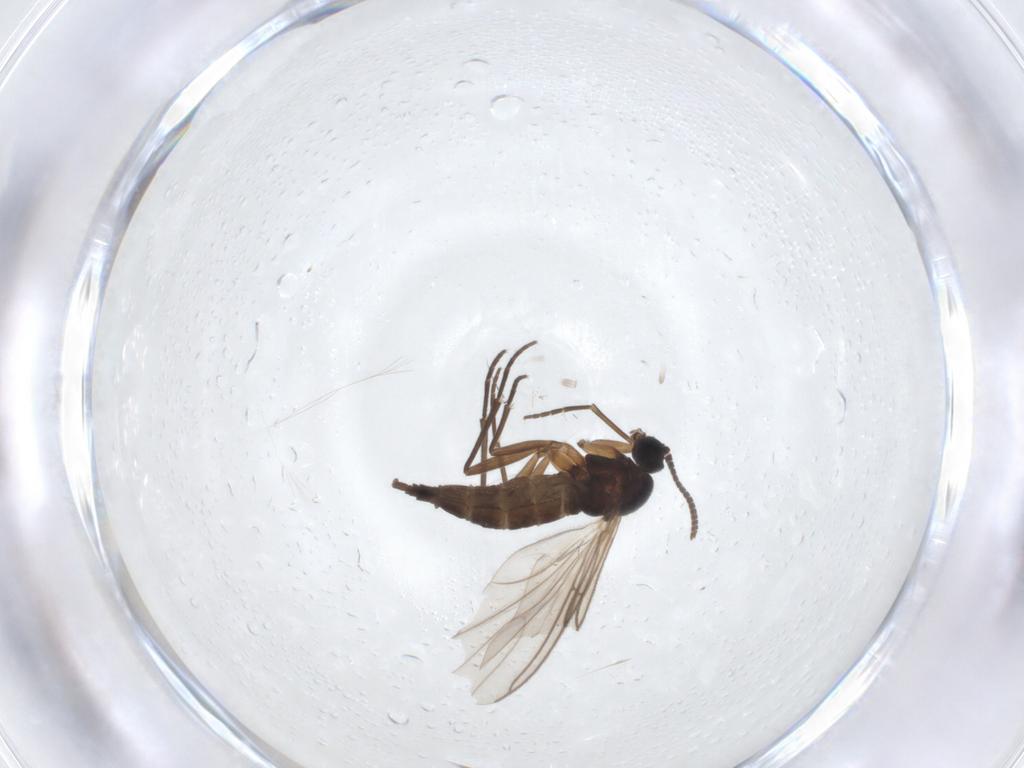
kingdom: Animalia
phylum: Arthropoda
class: Insecta
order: Diptera
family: Sciaridae
